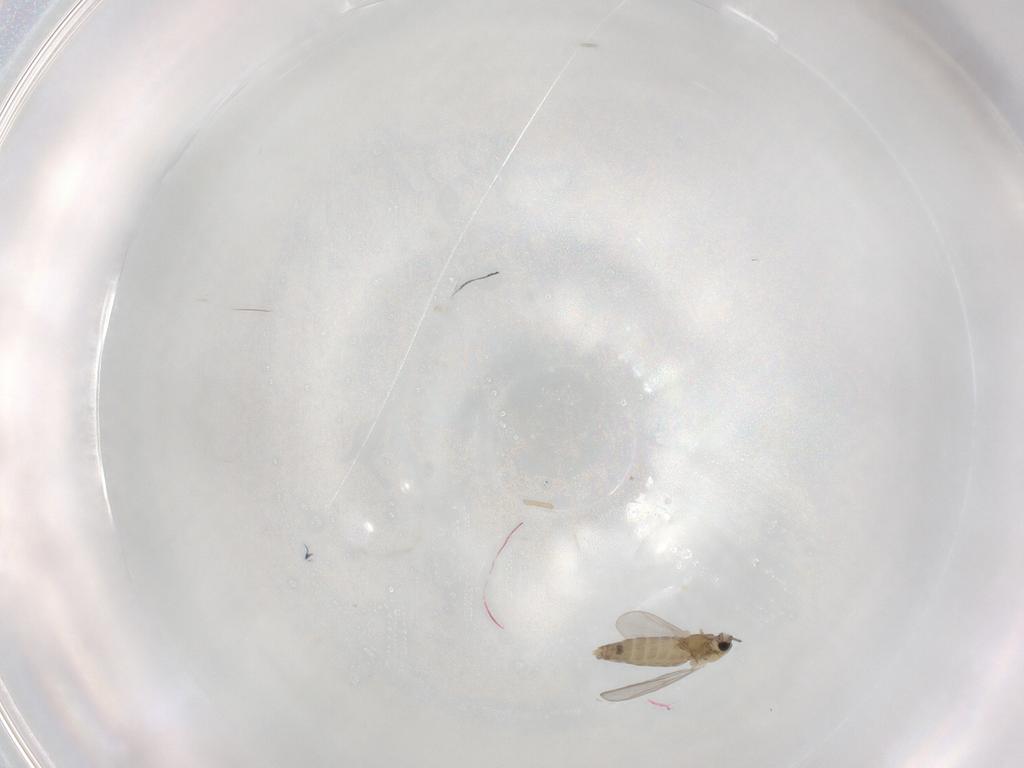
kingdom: Animalia
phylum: Arthropoda
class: Insecta
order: Diptera
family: Chironomidae
